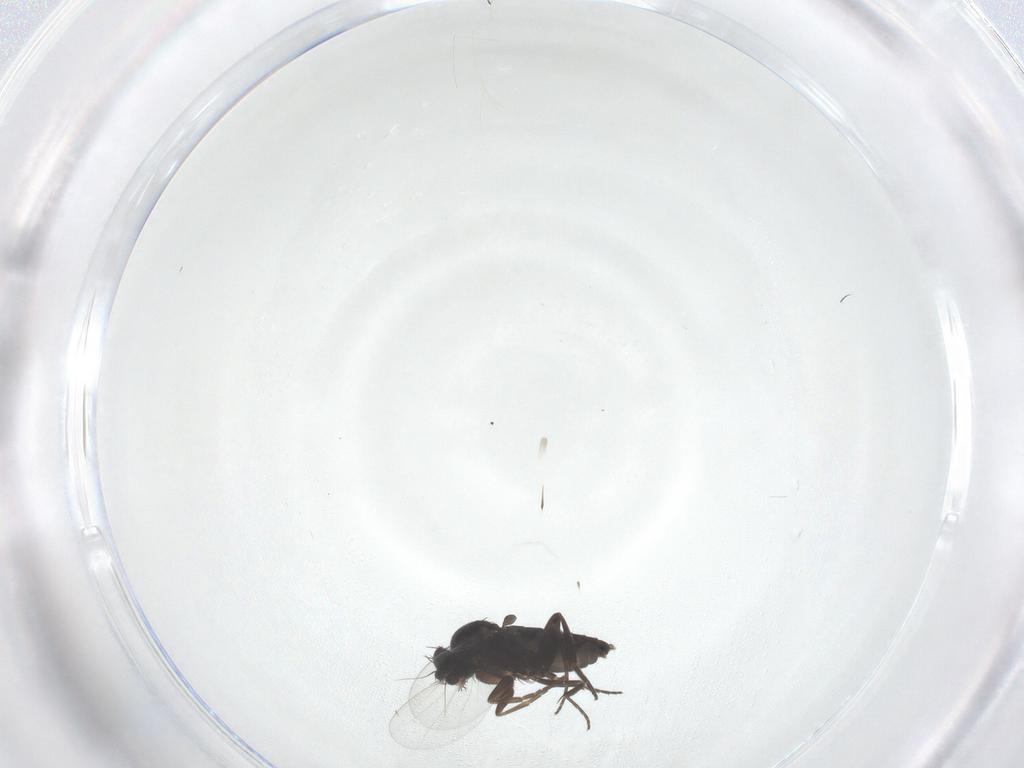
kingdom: Animalia
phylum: Arthropoda
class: Insecta
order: Diptera
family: Phoridae
